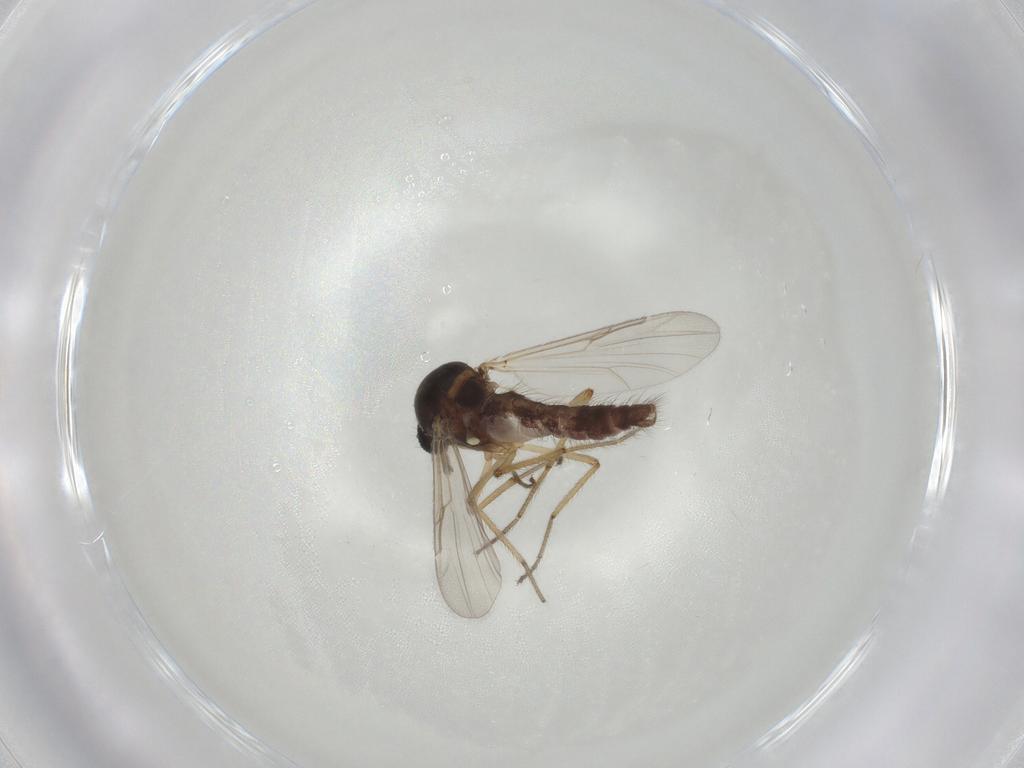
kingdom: Animalia
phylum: Arthropoda
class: Insecta
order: Diptera
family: Ceratopogonidae
